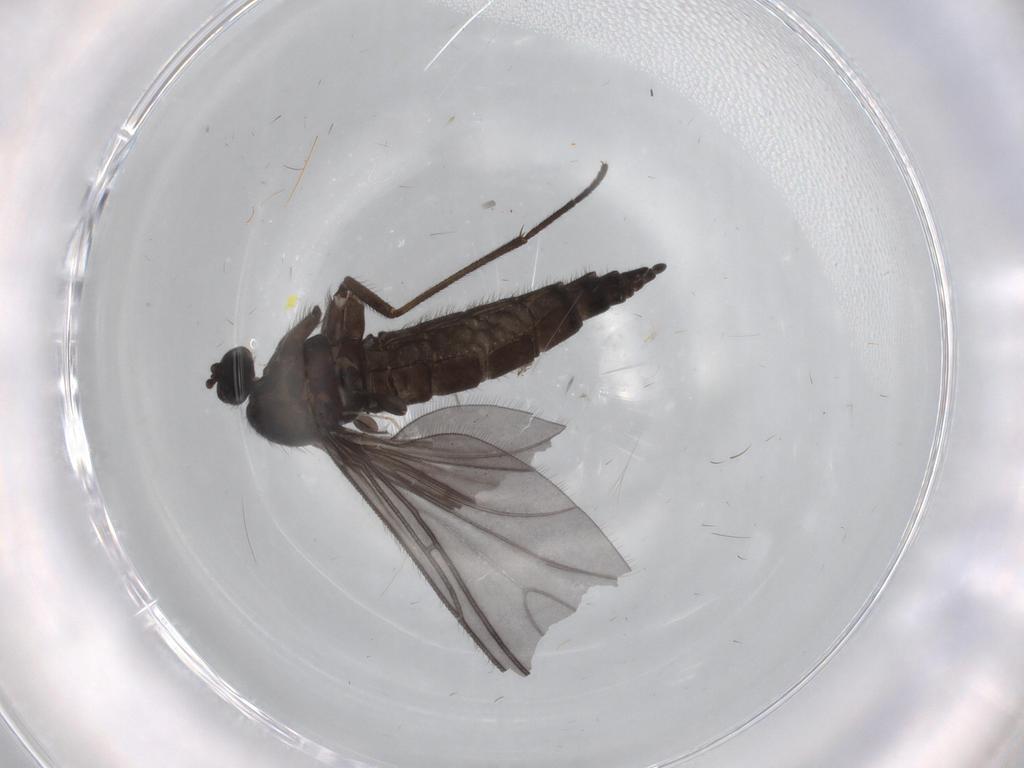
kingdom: Animalia
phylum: Arthropoda
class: Insecta
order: Diptera
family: Sciaridae
